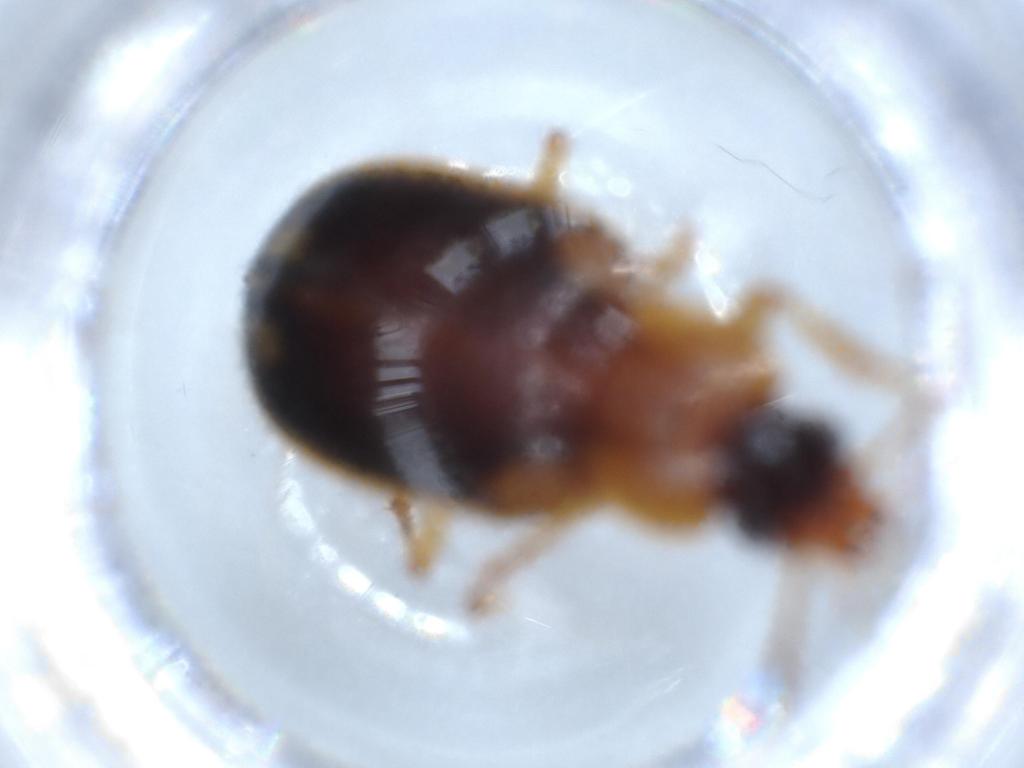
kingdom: Animalia
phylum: Arthropoda
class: Insecta
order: Coleoptera
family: Carabidae
